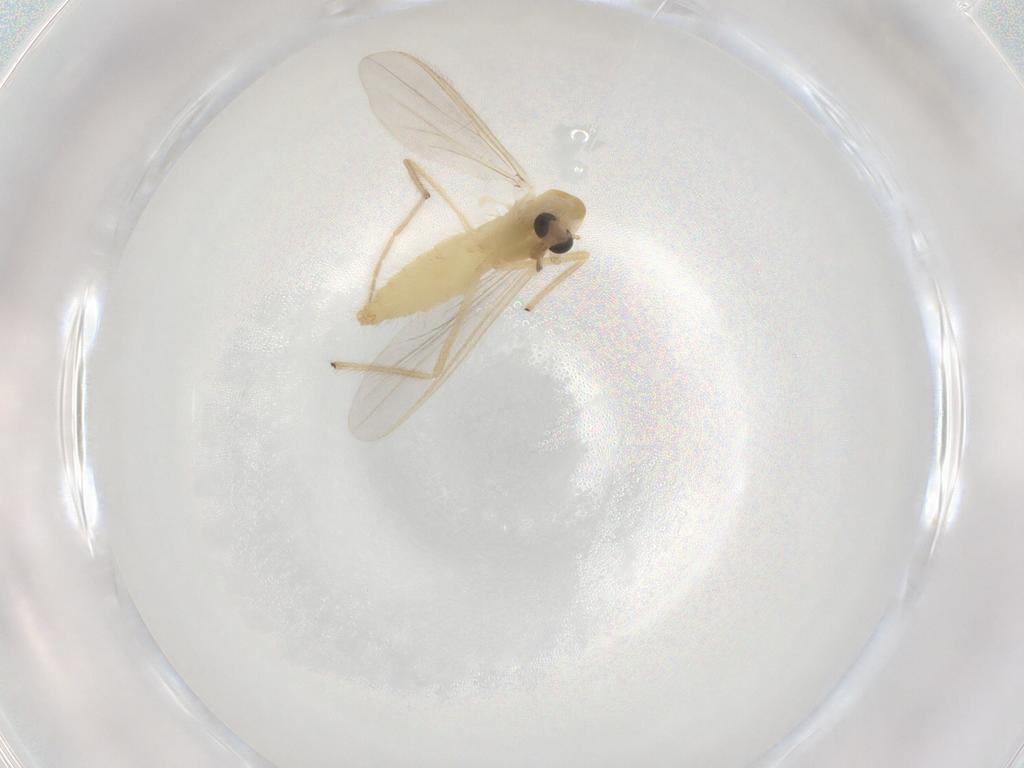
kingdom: Animalia
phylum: Arthropoda
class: Insecta
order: Diptera
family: Chironomidae
